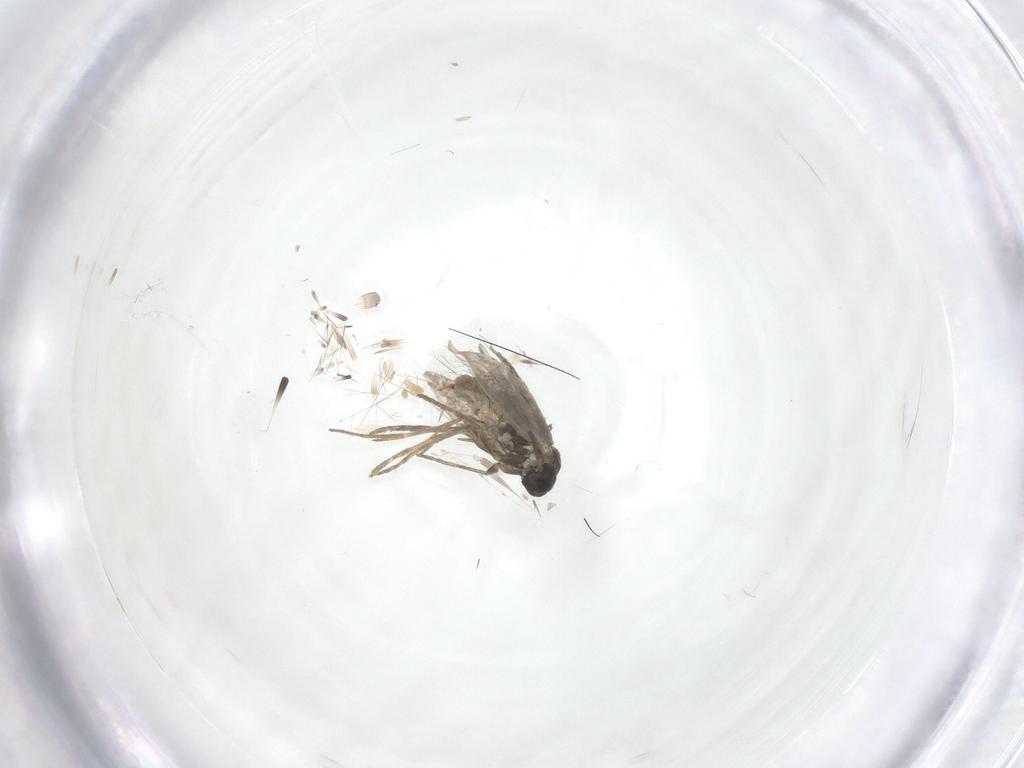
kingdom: Animalia
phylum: Arthropoda
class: Insecta
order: Lepidoptera
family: Elachistidae
